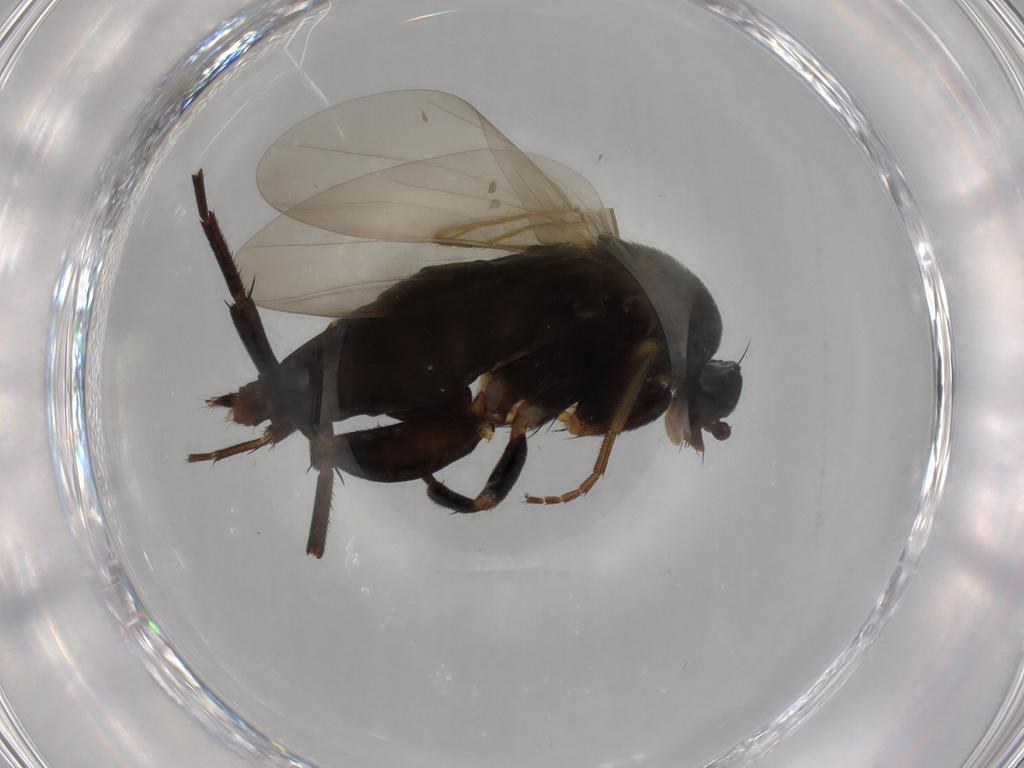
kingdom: Animalia
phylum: Arthropoda
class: Insecta
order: Diptera
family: Phoridae
